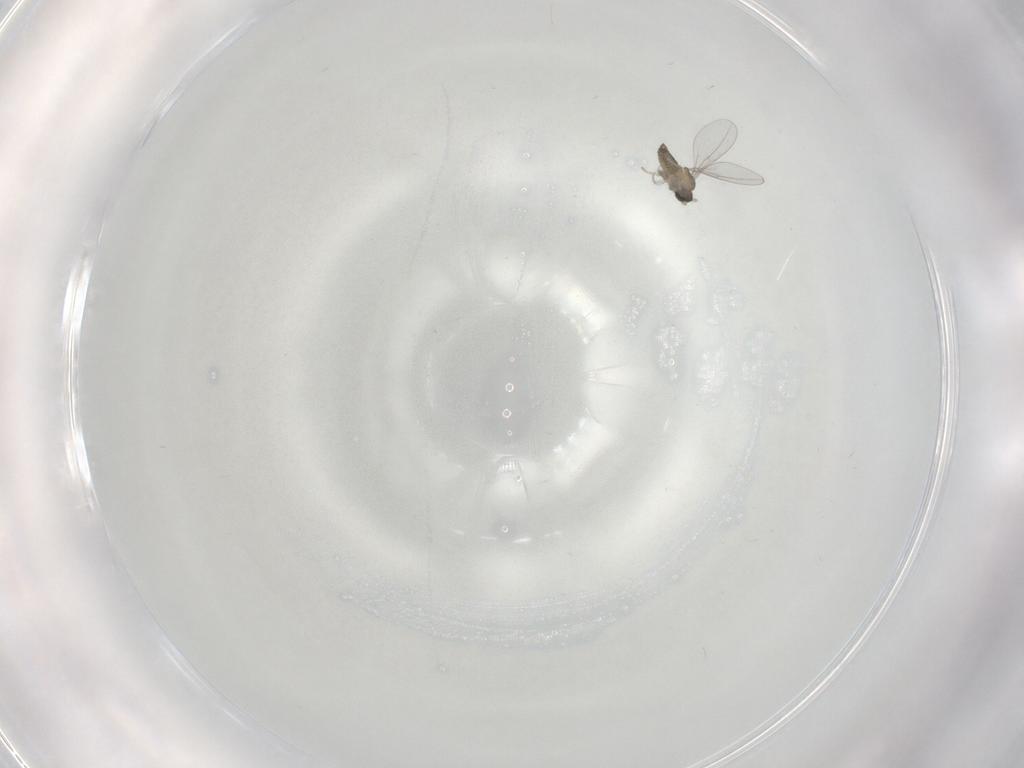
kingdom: Animalia
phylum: Arthropoda
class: Insecta
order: Diptera
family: Cecidomyiidae
